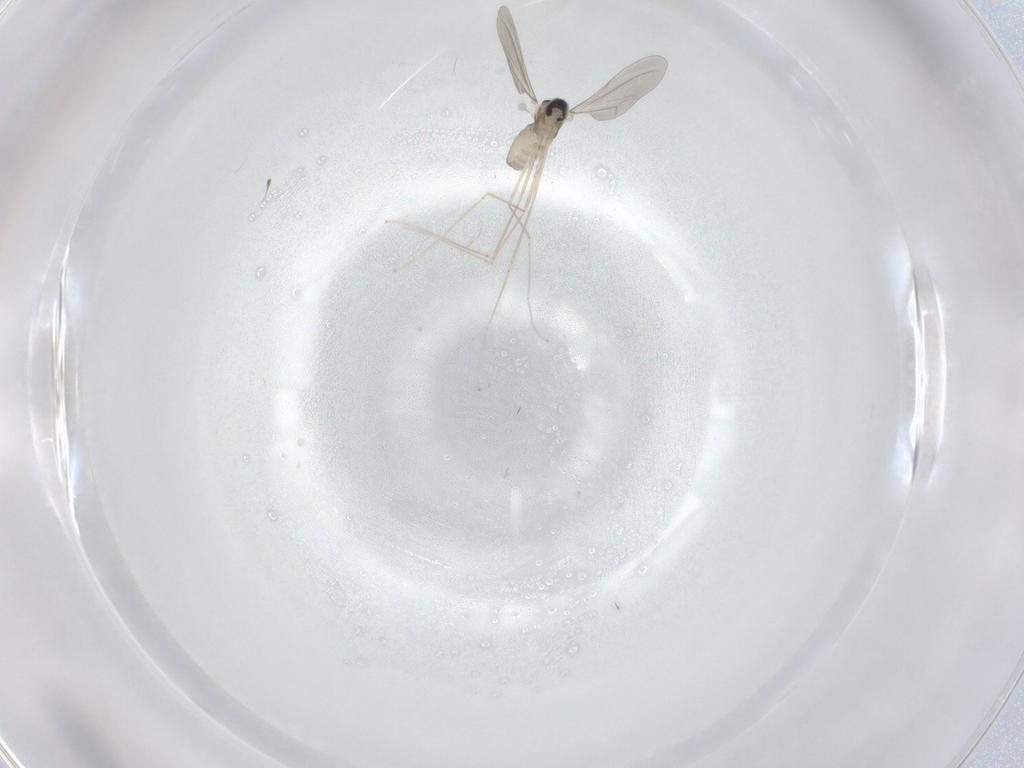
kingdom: Animalia
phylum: Arthropoda
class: Insecta
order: Diptera
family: Cecidomyiidae
